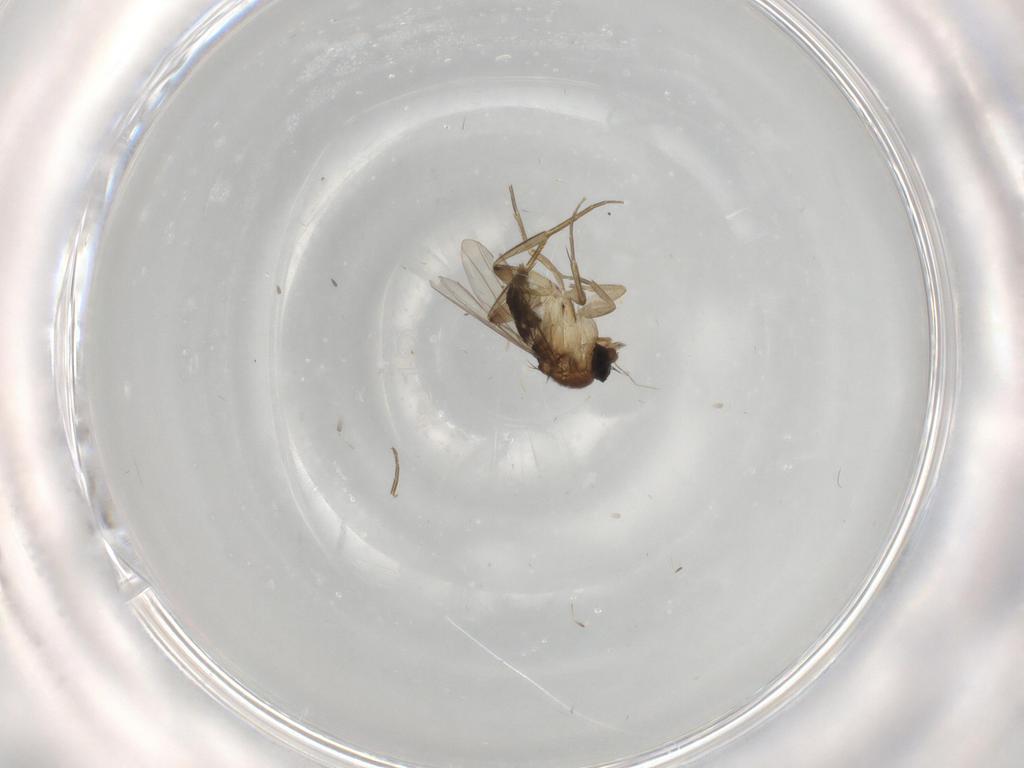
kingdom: Animalia
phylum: Arthropoda
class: Insecta
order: Diptera
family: Phoridae
